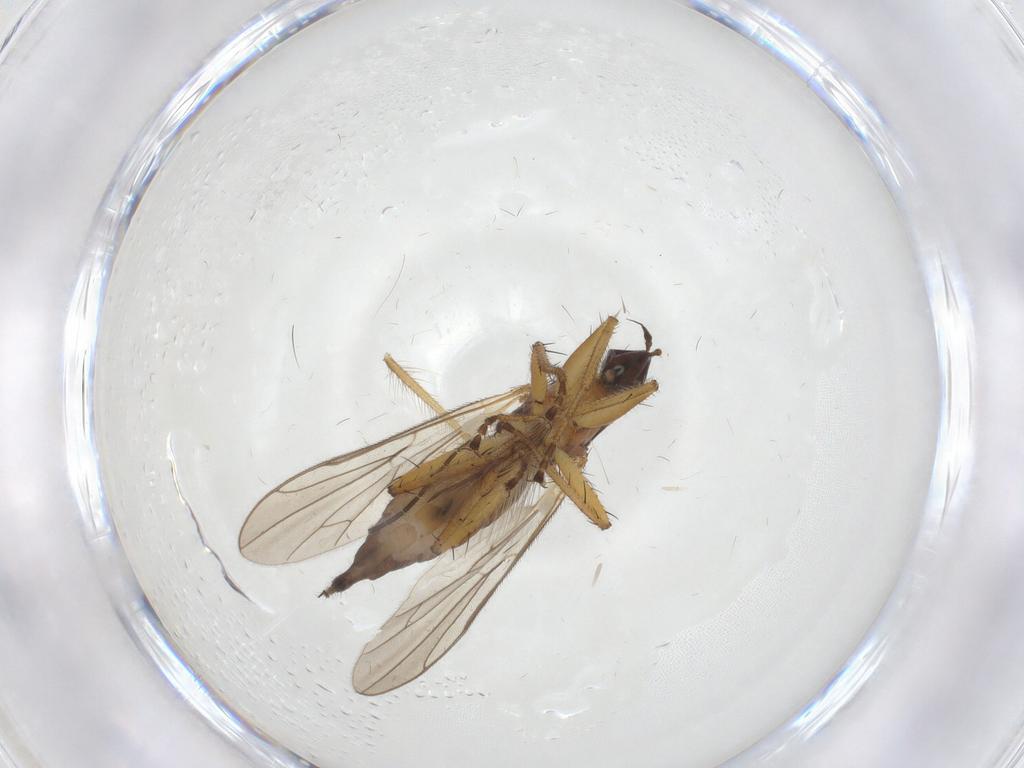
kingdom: Animalia
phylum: Arthropoda
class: Insecta
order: Diptera
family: Hybotidae
